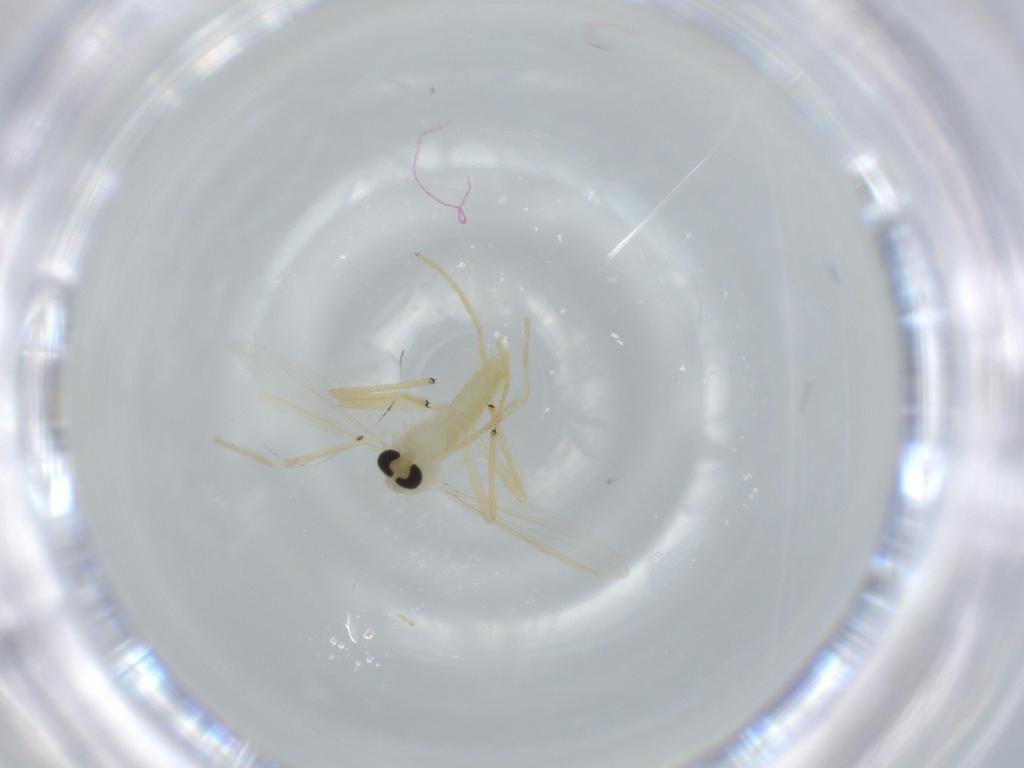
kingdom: Animalia
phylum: Arthropoda
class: Insecta
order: Diptera
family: Chironomidae
